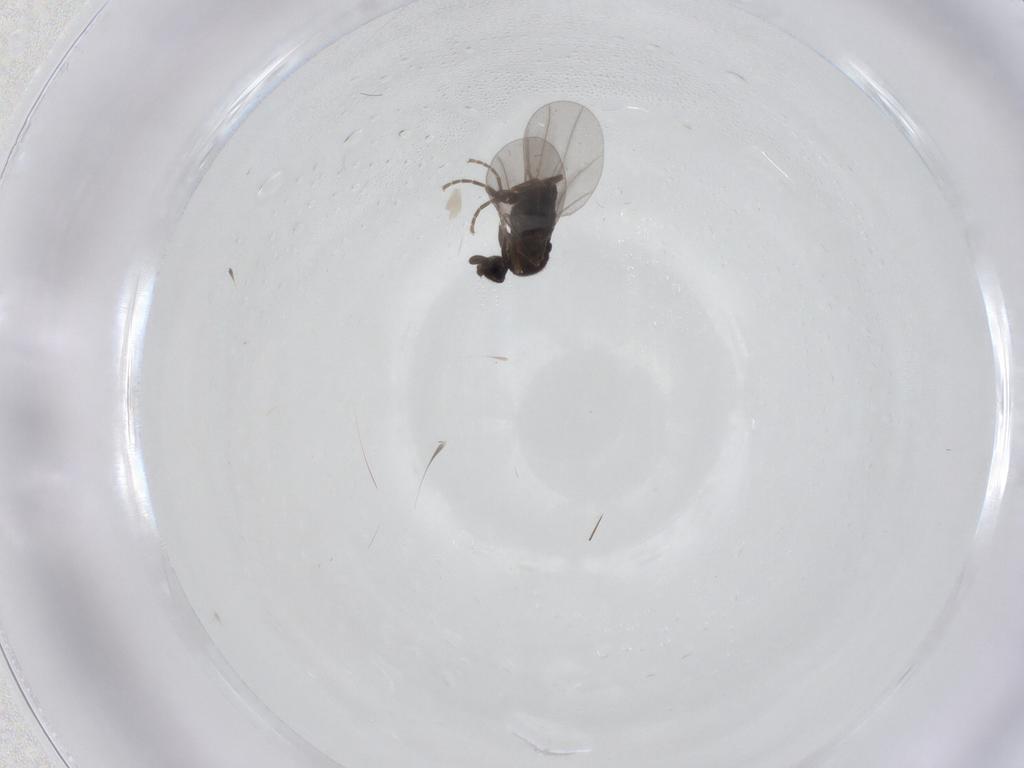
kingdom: Animalia
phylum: Arthropoda
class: Insecta
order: Diptera
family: Cecidomyiidae
